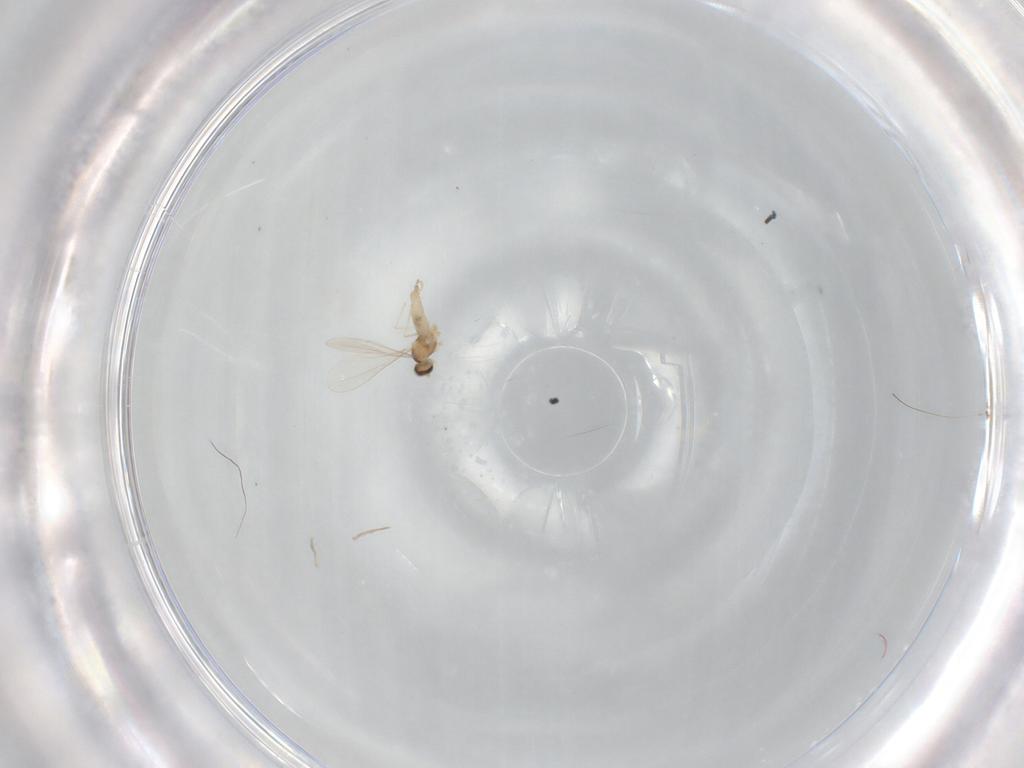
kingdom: Animalia
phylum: Arthropoda
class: Insecta
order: Diptera
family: Cecidomyiidae
